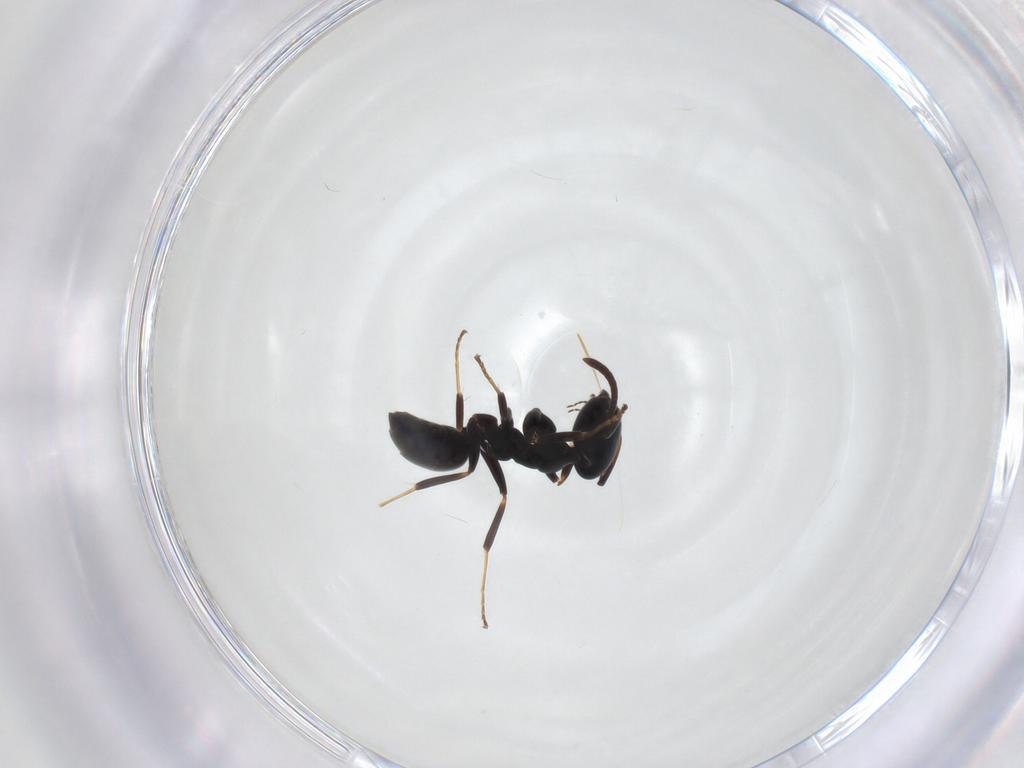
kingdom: Animalia
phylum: Arthropoda
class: Insecta
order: Hymenoptera
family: Formicidae
